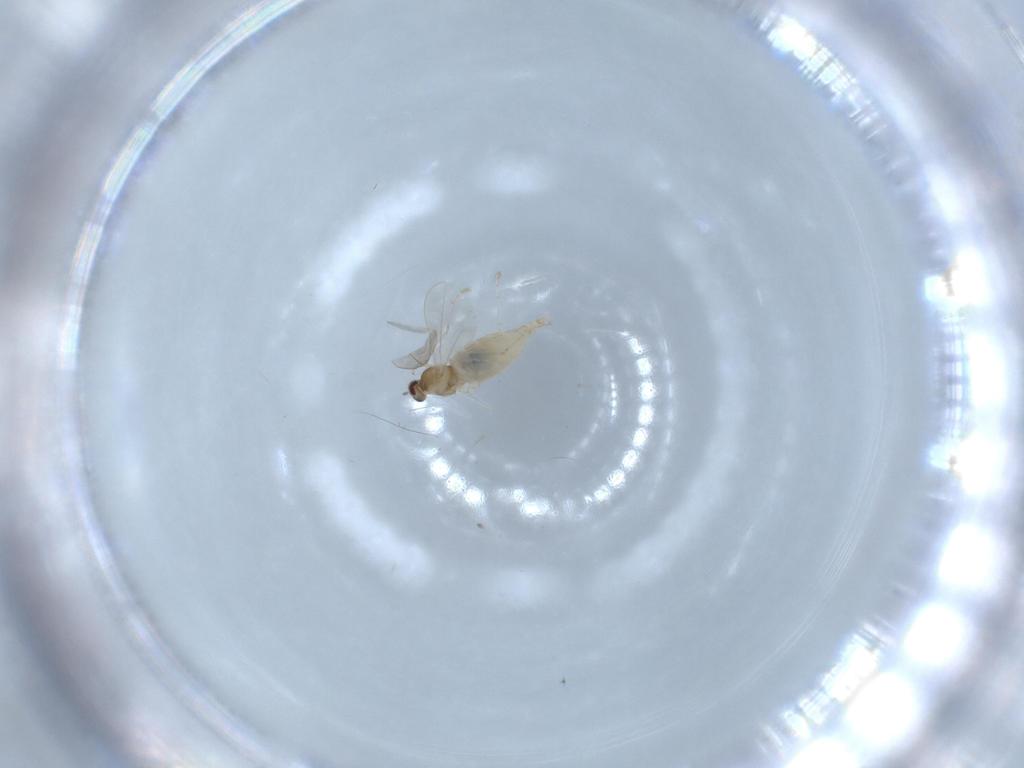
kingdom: Animalia
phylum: Arthropoda
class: Insecta
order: Diptera
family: Cecidomyiidae
